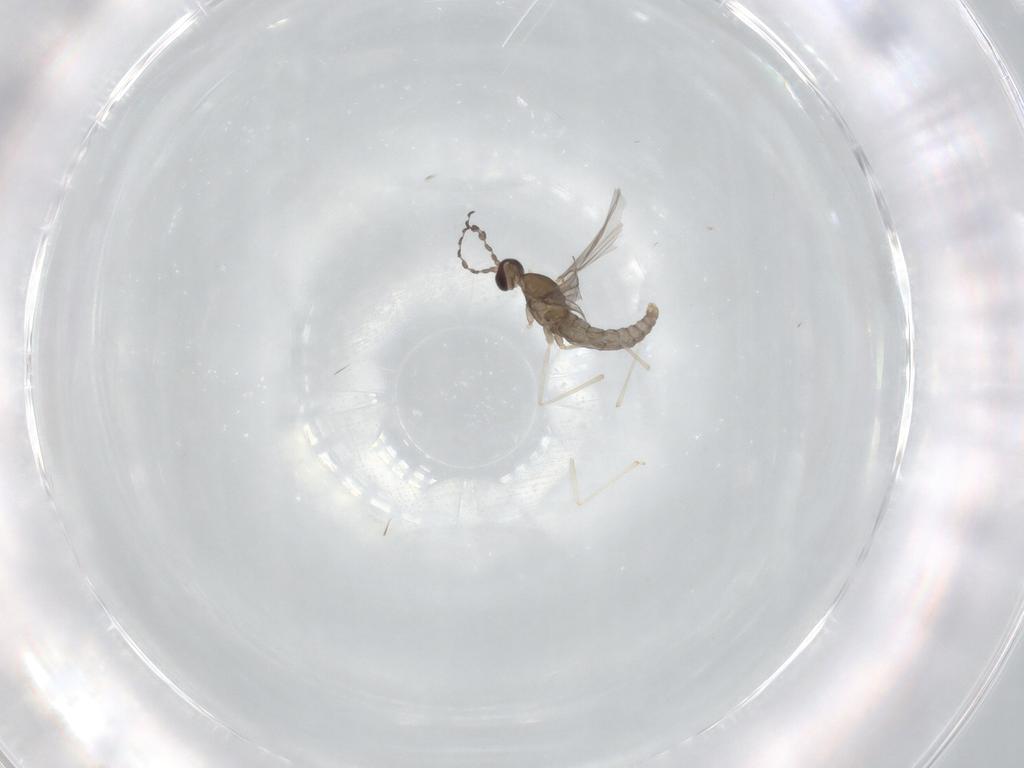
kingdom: Animalia
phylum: Arthropoda
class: Insecta
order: Diptera
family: Cecidomyiidae
